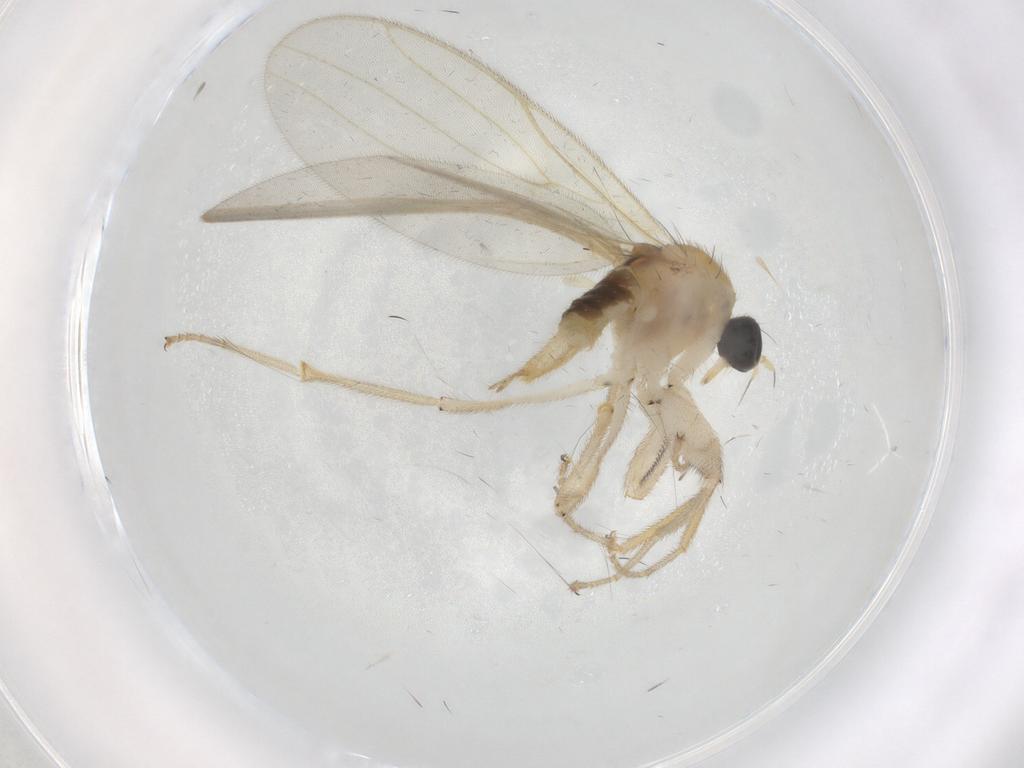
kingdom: Animalia
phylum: Arthropoda
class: Insecta
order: Diptera
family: Hybotidae
